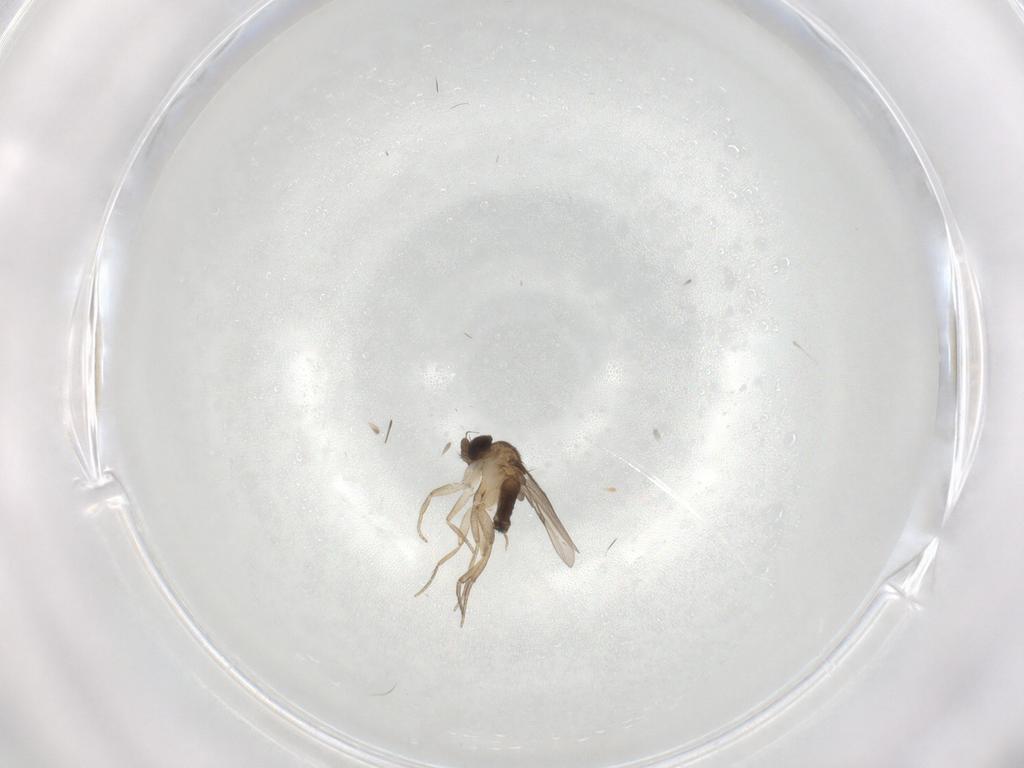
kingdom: Animalia
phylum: Arthropoda
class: Insecta
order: Diptera
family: Phoridae
